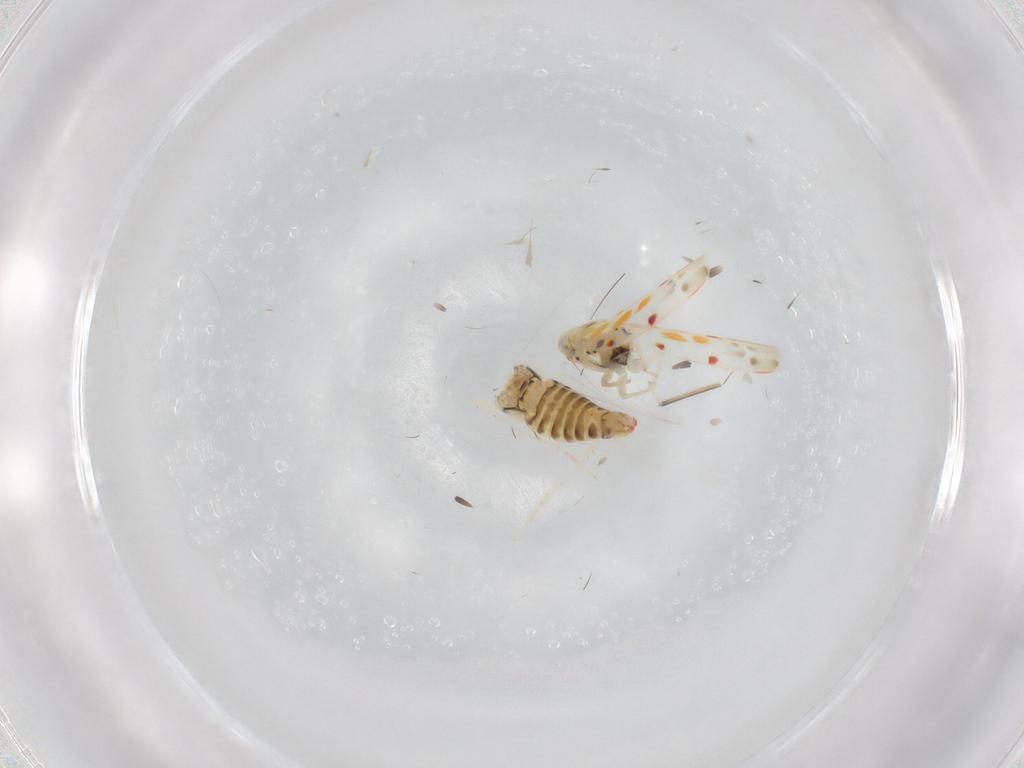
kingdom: Animalia
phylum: Arthropoda
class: Insecta
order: Hemiptera
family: Cicadellidae
